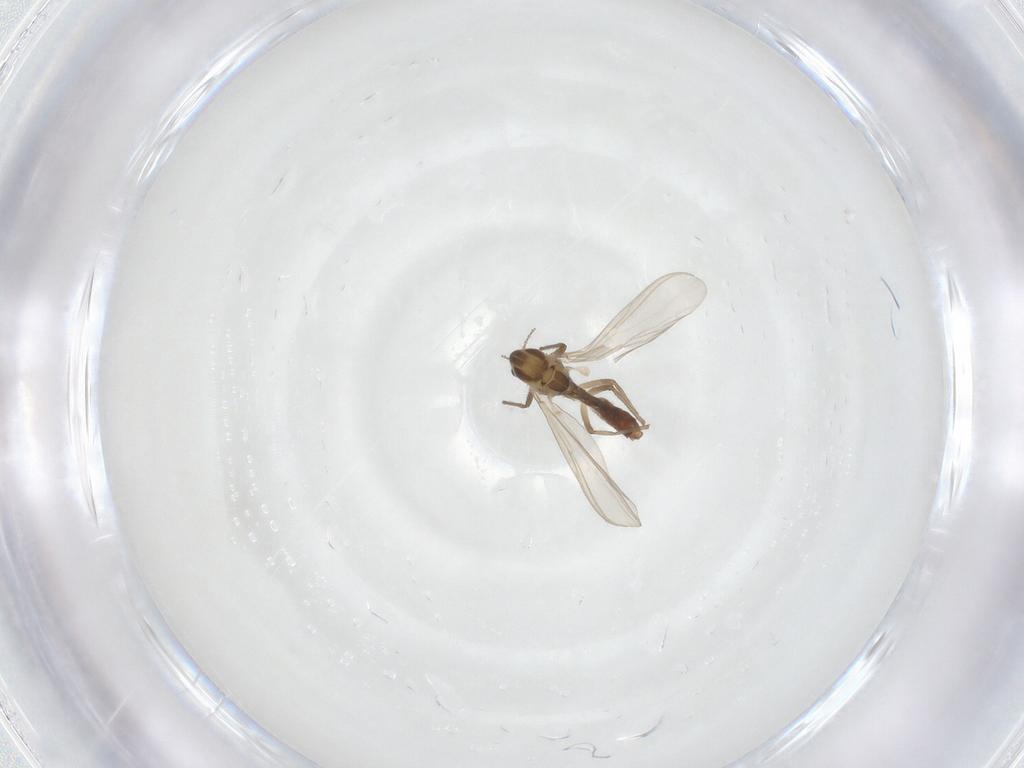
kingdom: Animalia
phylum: Arthropoda
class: Insecta
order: Diptera
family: Chironomidae
